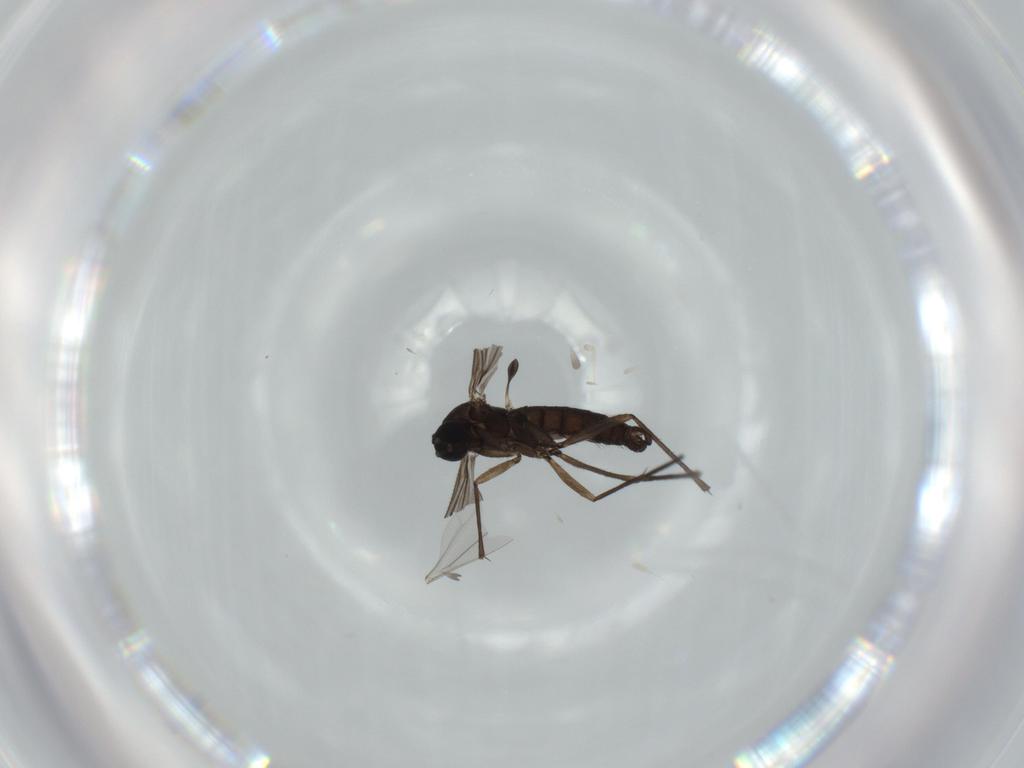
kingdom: Animalia
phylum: Arthropoda
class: Insecta
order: Diptera
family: Sciaridae
